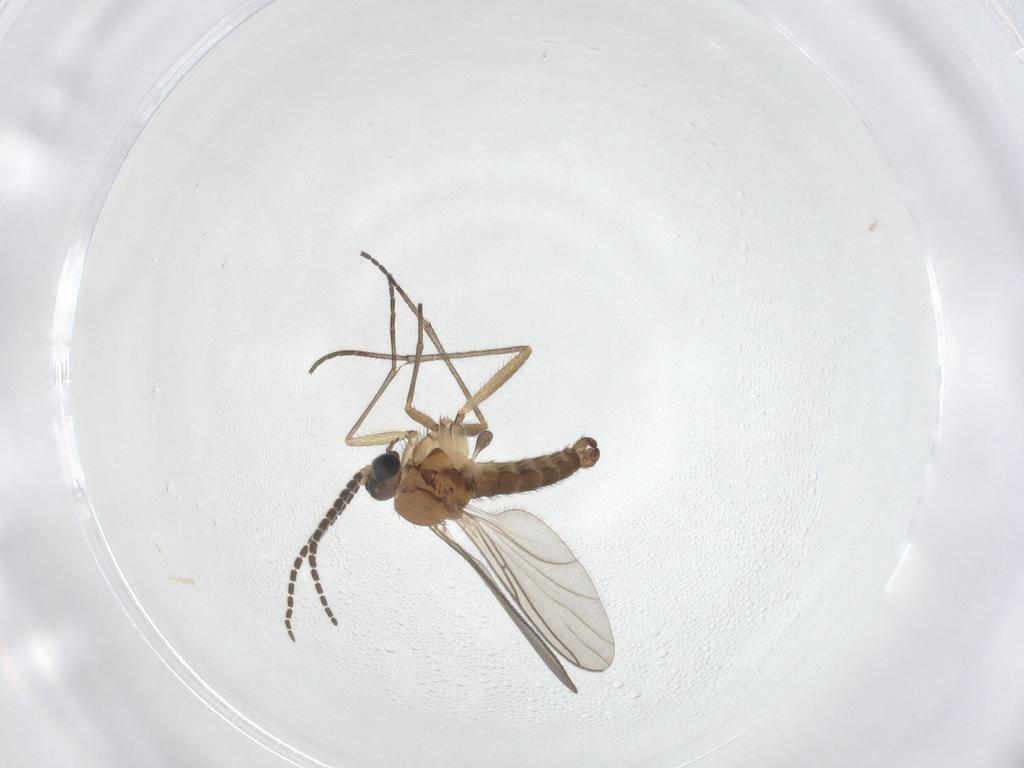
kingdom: Animalia
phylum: Arthropoda
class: Insecta
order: Diptera
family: Sciaridae
